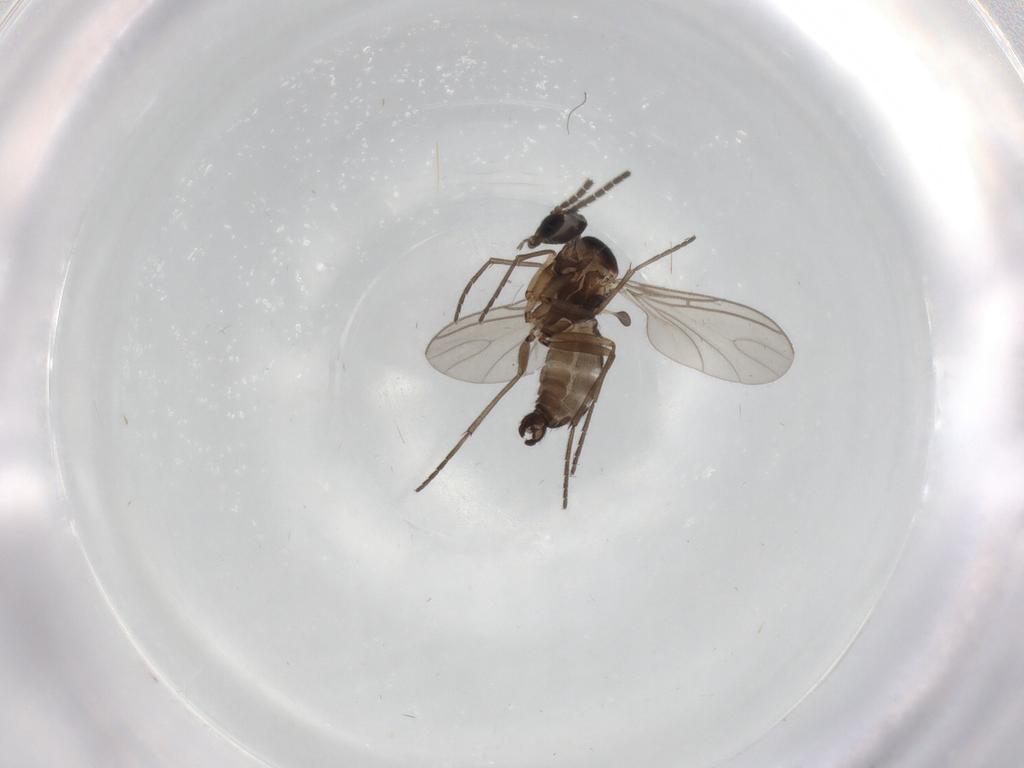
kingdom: Animalia
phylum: Arthropoda
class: Insecta
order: Diptera
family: Sciaridae
